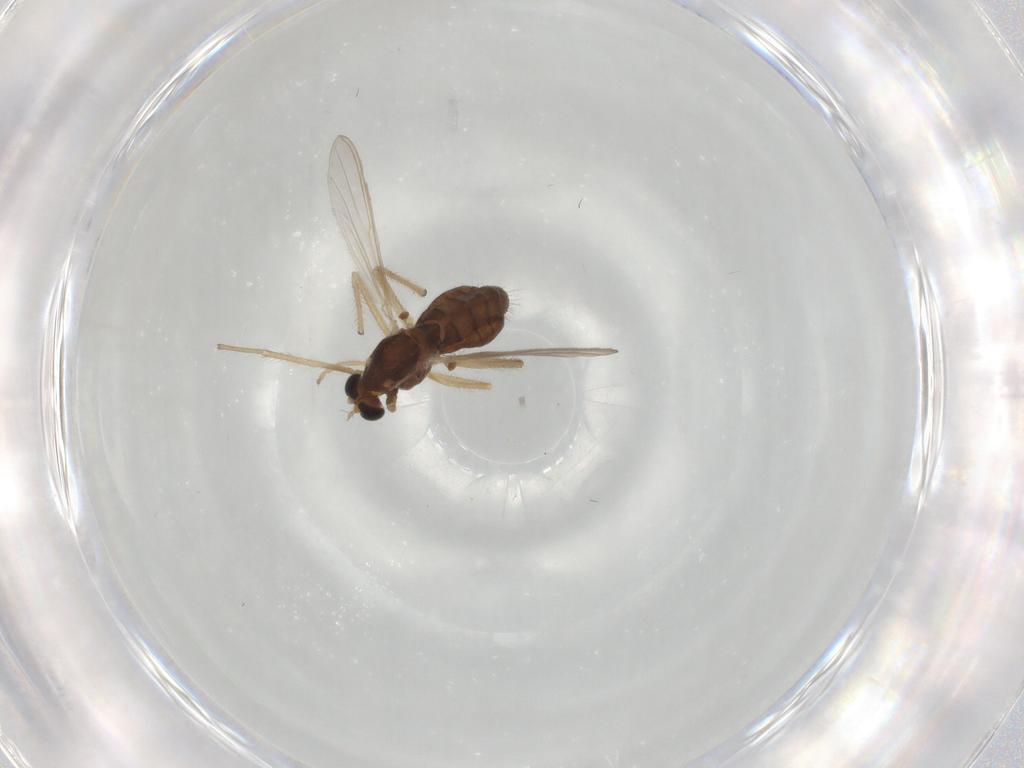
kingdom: Animalia
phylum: Arthropoda
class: Insecta
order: Diptera
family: Chironomidae
